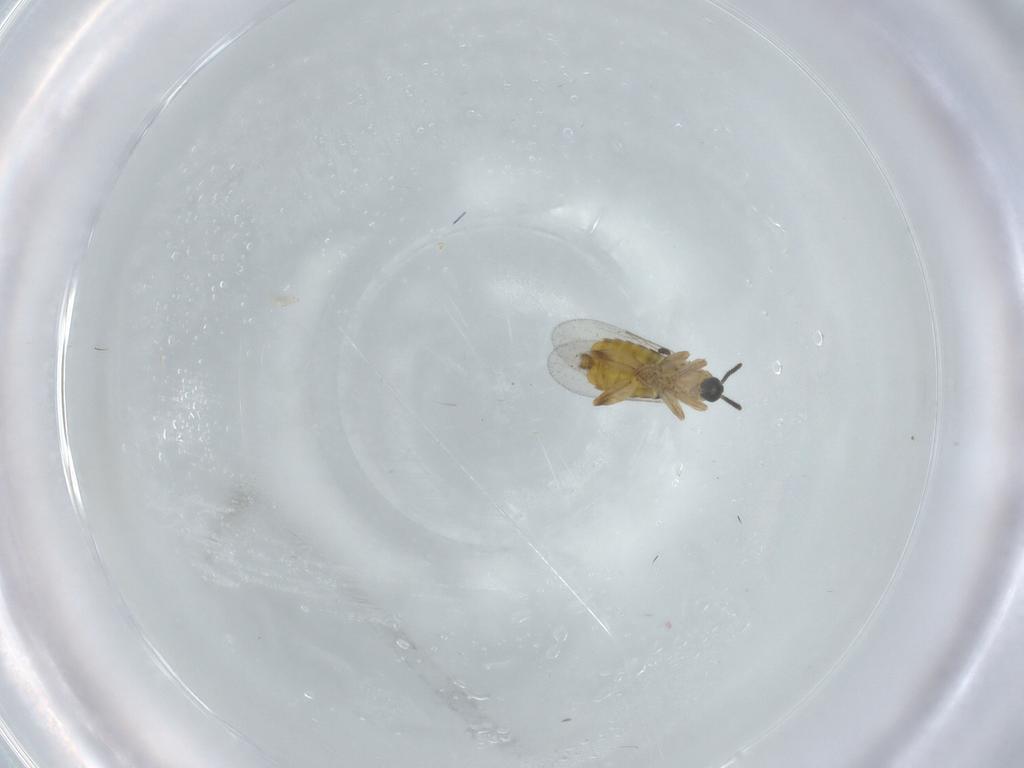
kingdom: Animalia
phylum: Arthropoda
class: Insecta
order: Diptera
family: Scatopsidae
